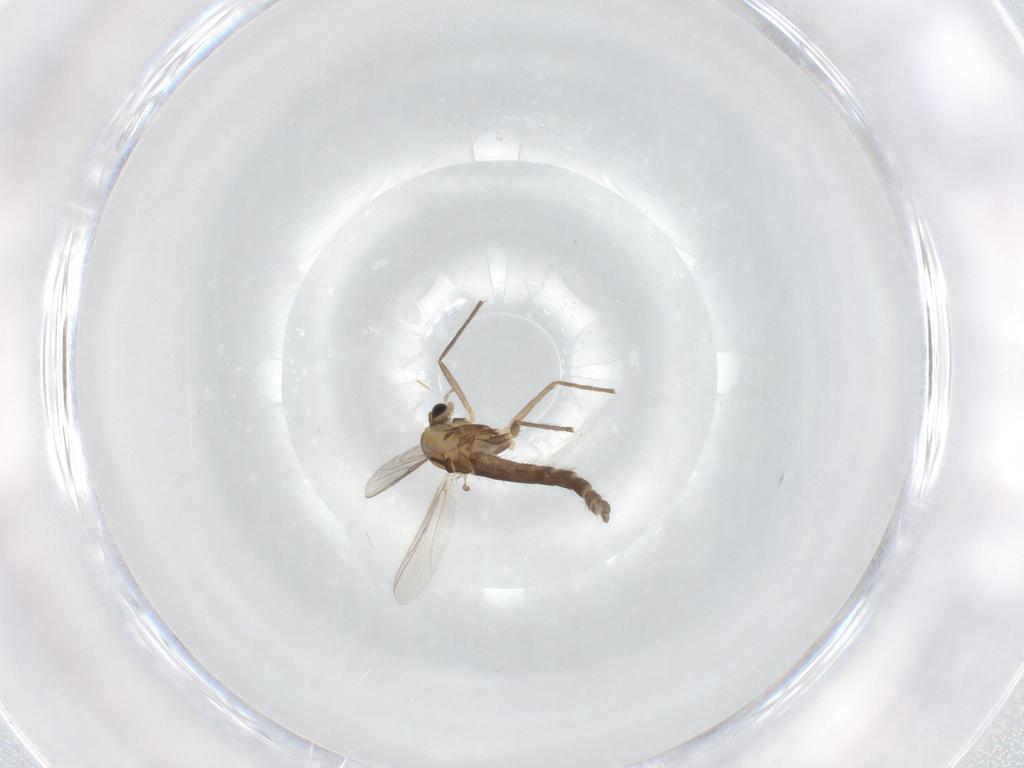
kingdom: Animalia
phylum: Arthropoda
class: Insecta
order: Diptera
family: Chironomidae
